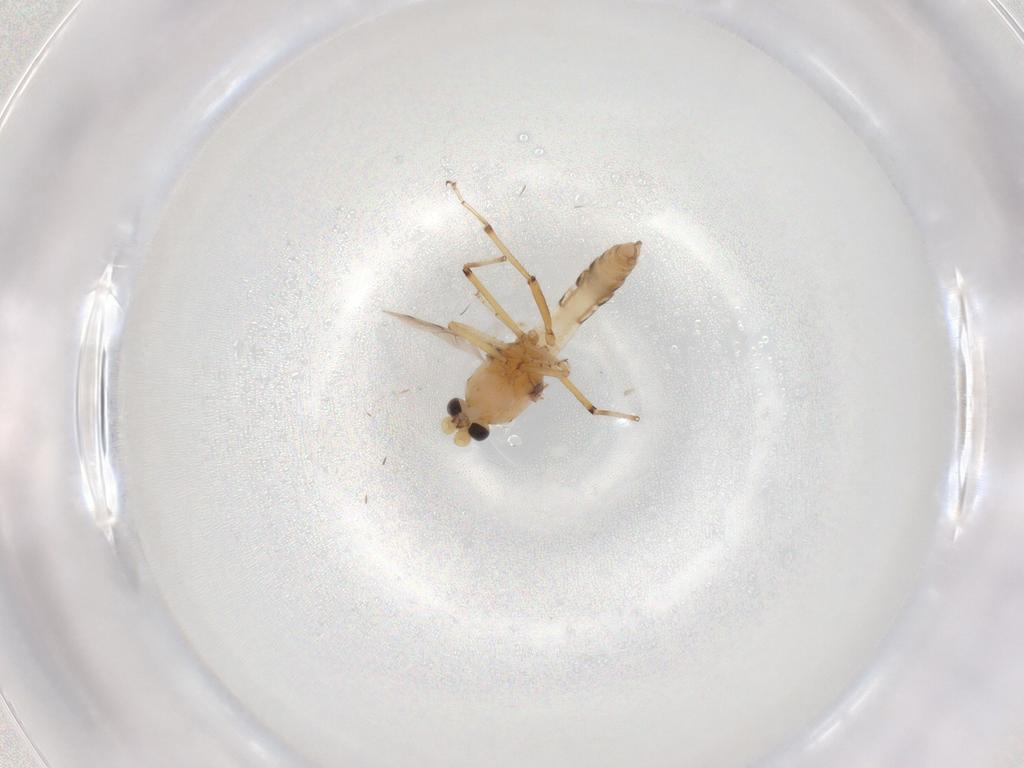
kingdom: Animalia
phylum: Arthropoda
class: Insecta
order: Diptera
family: Ceratopogonidae
